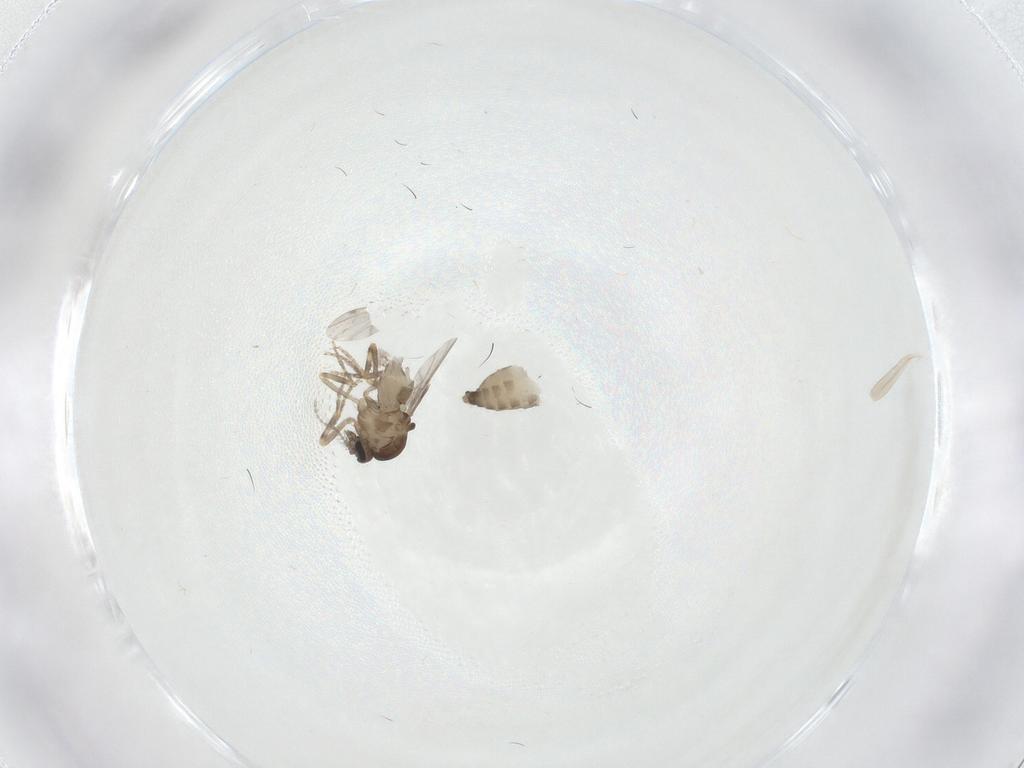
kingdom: Animalia
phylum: Arthropoda
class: Insecta
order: Diptera
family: Ceratopogonidae
